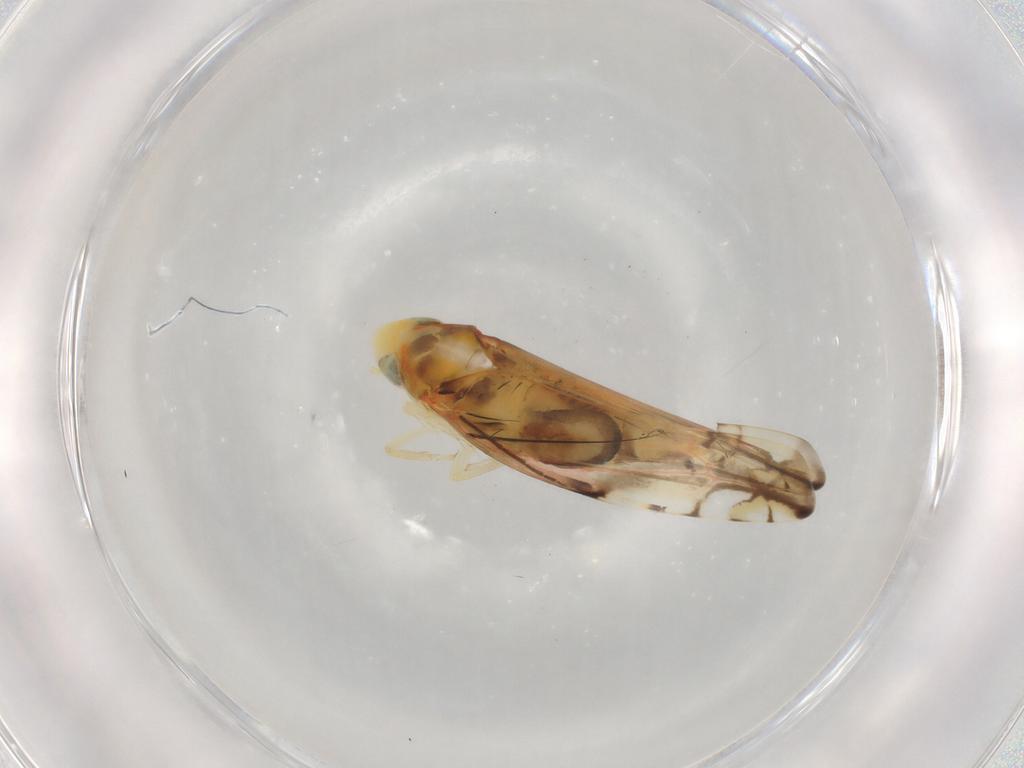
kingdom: Animalia
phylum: Arthropoda
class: Insecta
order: Hemiptera
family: Cicadellidae
